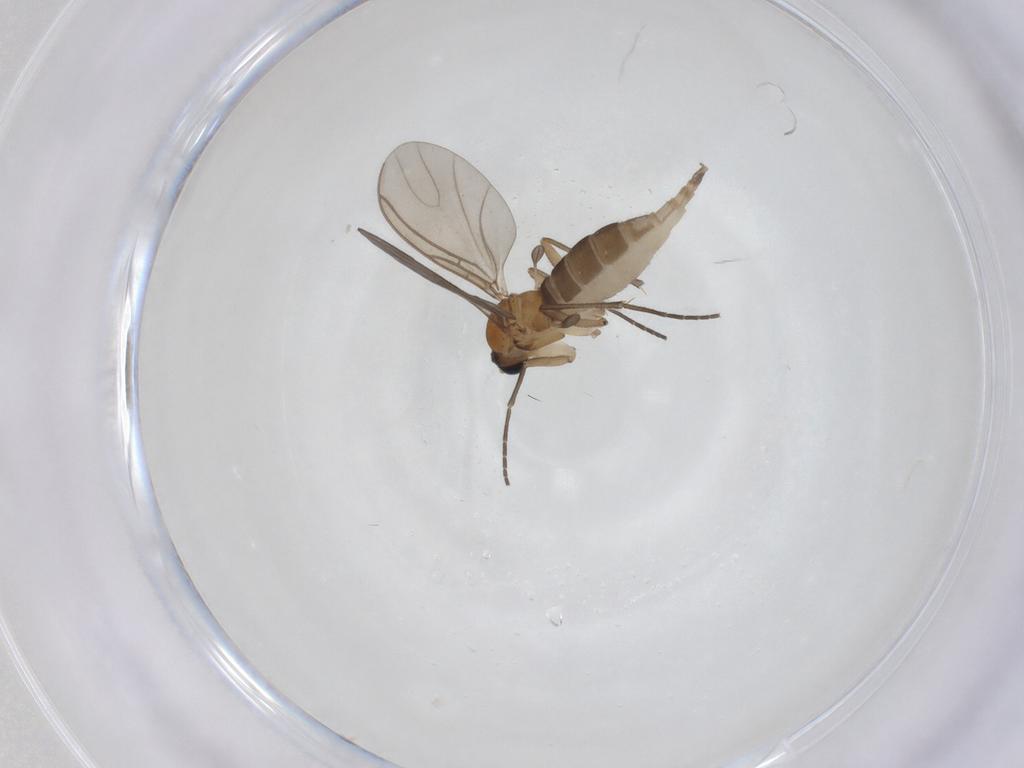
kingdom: Animalia
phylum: Arthropoda
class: Insecta
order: Diptera
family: Sciaridae
